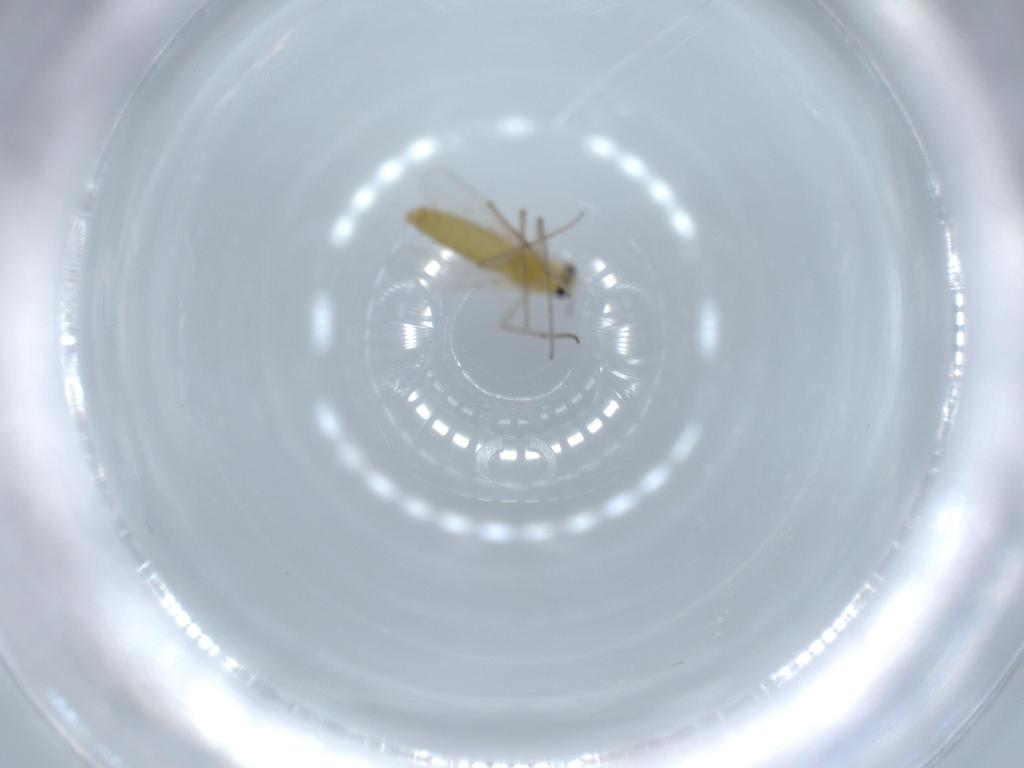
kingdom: Animalia
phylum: Arthropoda
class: Insecta
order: Diptera
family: Chironomidae
